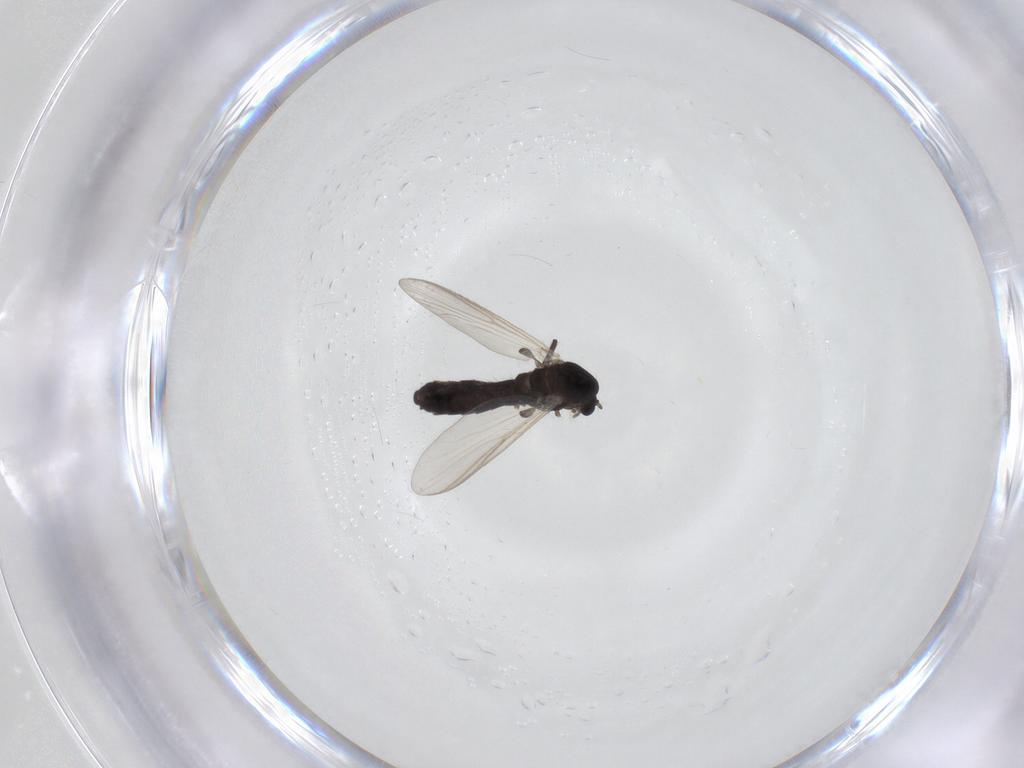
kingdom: Animalia
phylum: Arthropoda
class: Insecta
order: Diptera
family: Chironomidae
